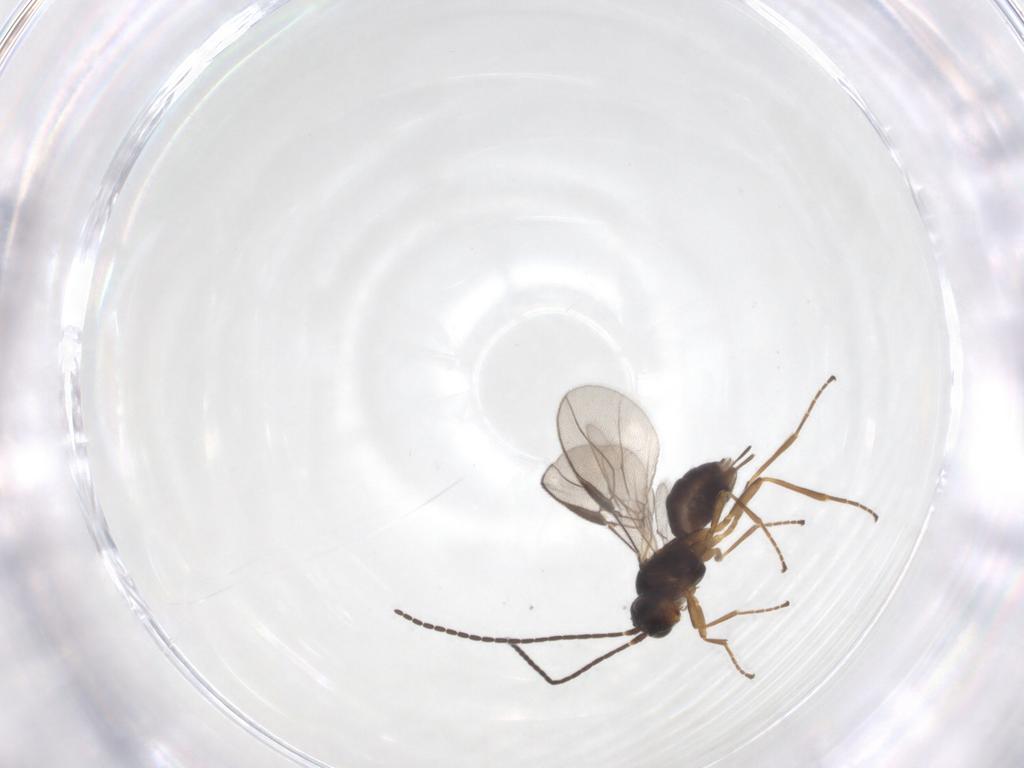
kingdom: Animalia
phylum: Arthropoda
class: Insecta
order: Hymenoptera
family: Braconidae
